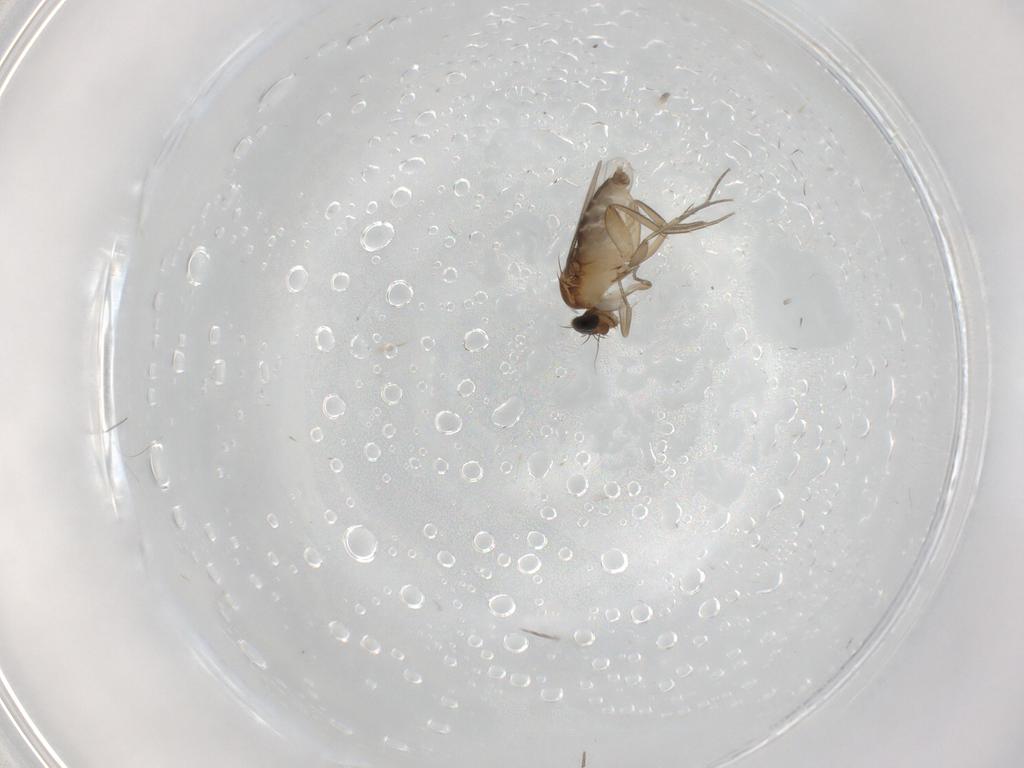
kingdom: Animalia
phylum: Arthropoda
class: Insecta
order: Diptera
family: Phoridae
